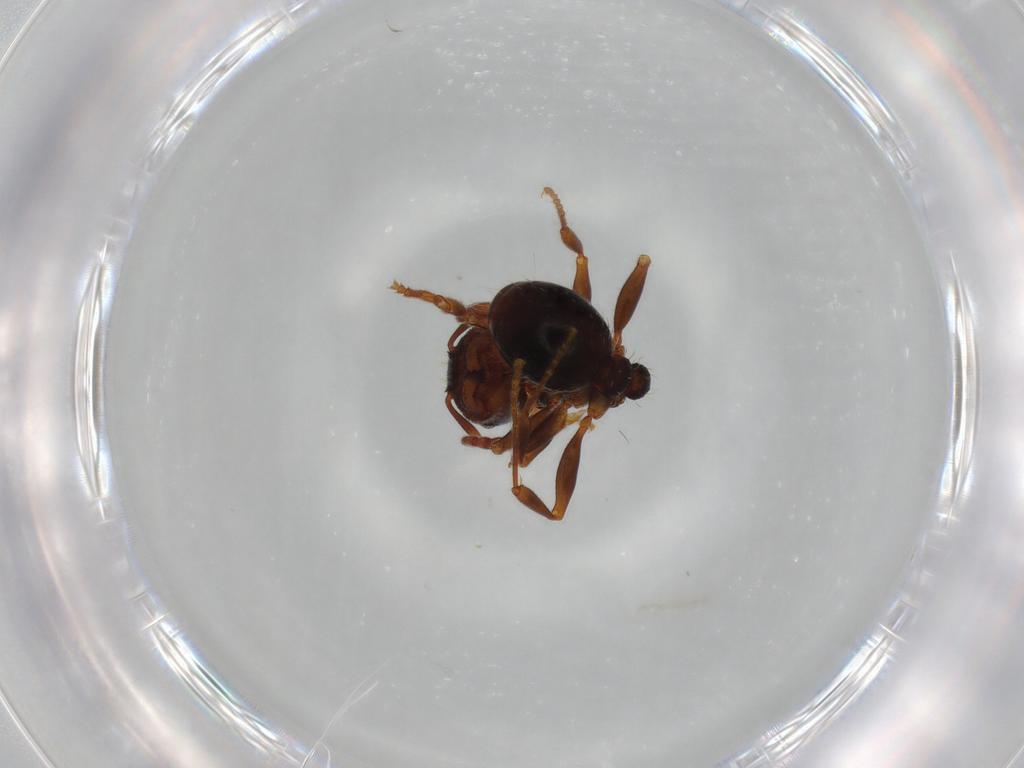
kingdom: Animalia
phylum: Arthropoda
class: Insecta
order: Hymenoptera
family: Formicidae
